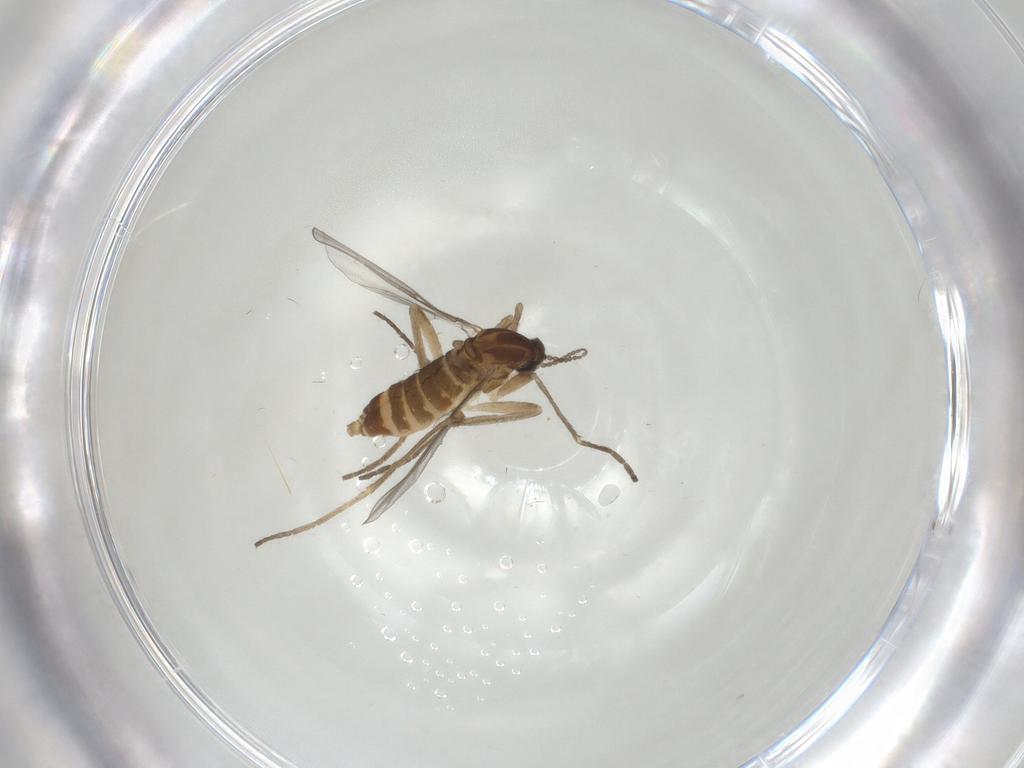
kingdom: Animalia
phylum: Arthropoda
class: Insecta
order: Diptera
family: Cecidomyiidae
